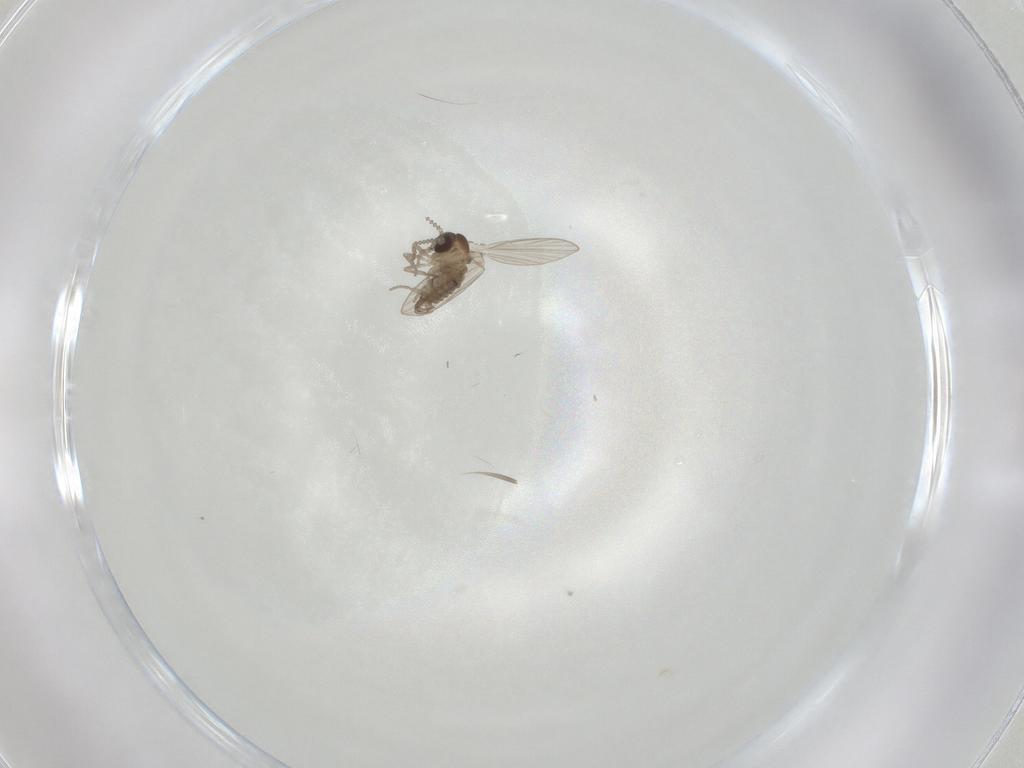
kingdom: Animalia
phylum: Arthropoda
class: Insecta
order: Diptera
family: Psychodidae
